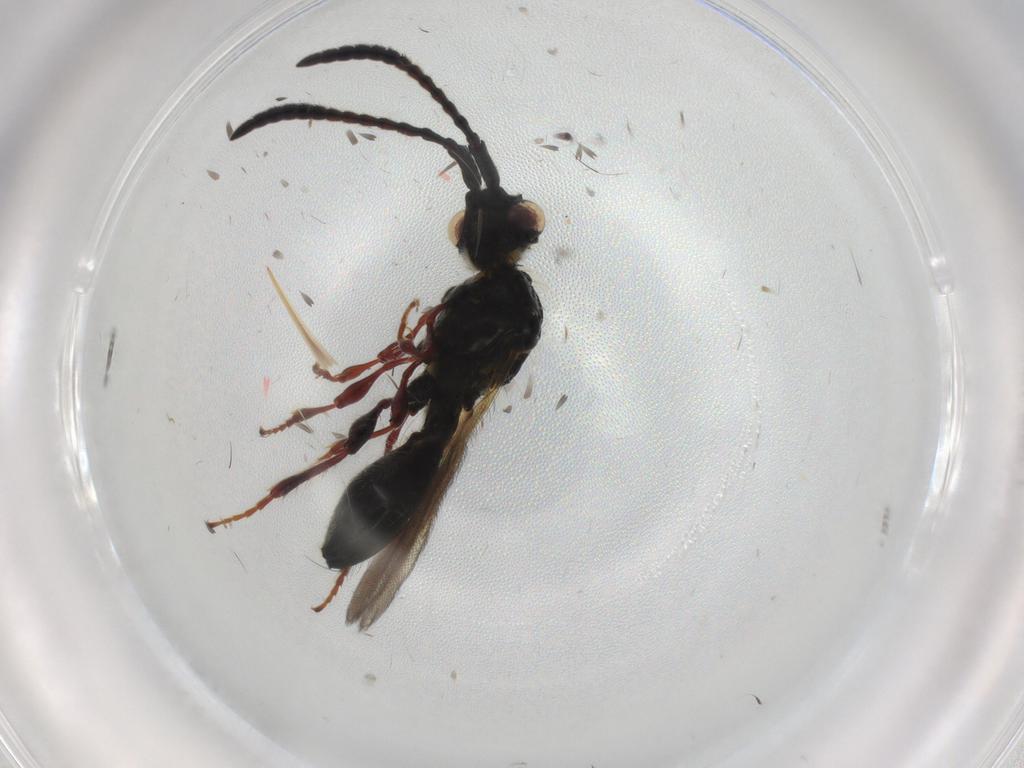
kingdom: Animalia
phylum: Arthropoda
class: Insecta
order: Hymenoptera
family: Diapriidae
